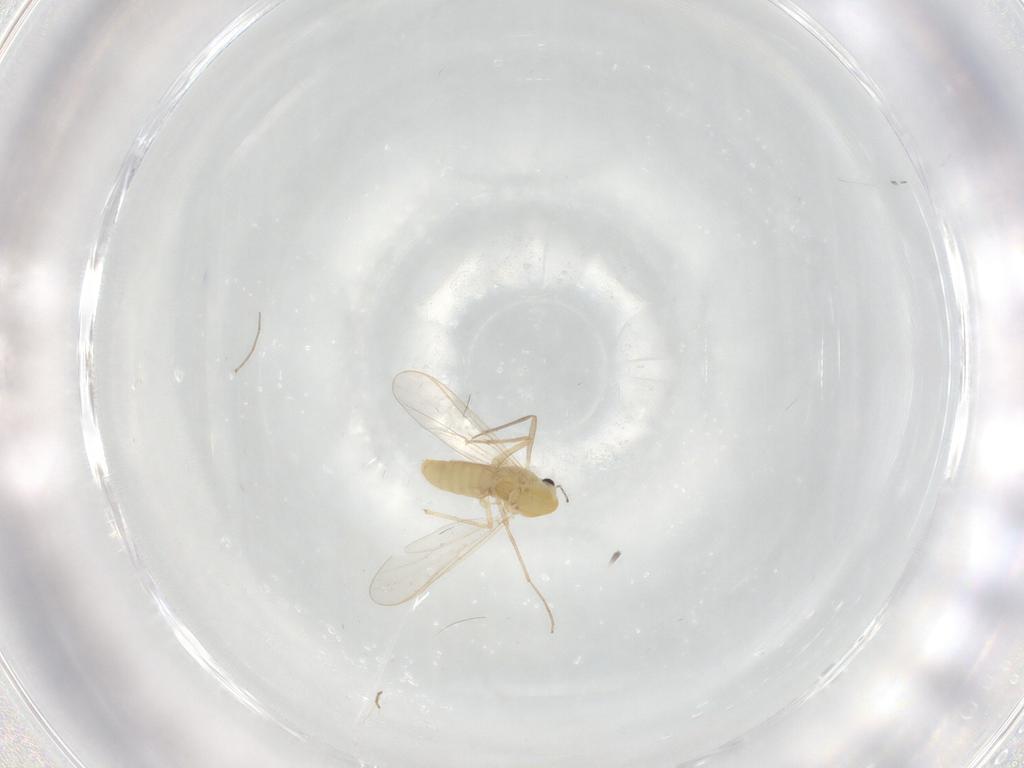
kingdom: Animalia
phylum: Arthropoda
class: Insecta
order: Diptera
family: Chironomidae
